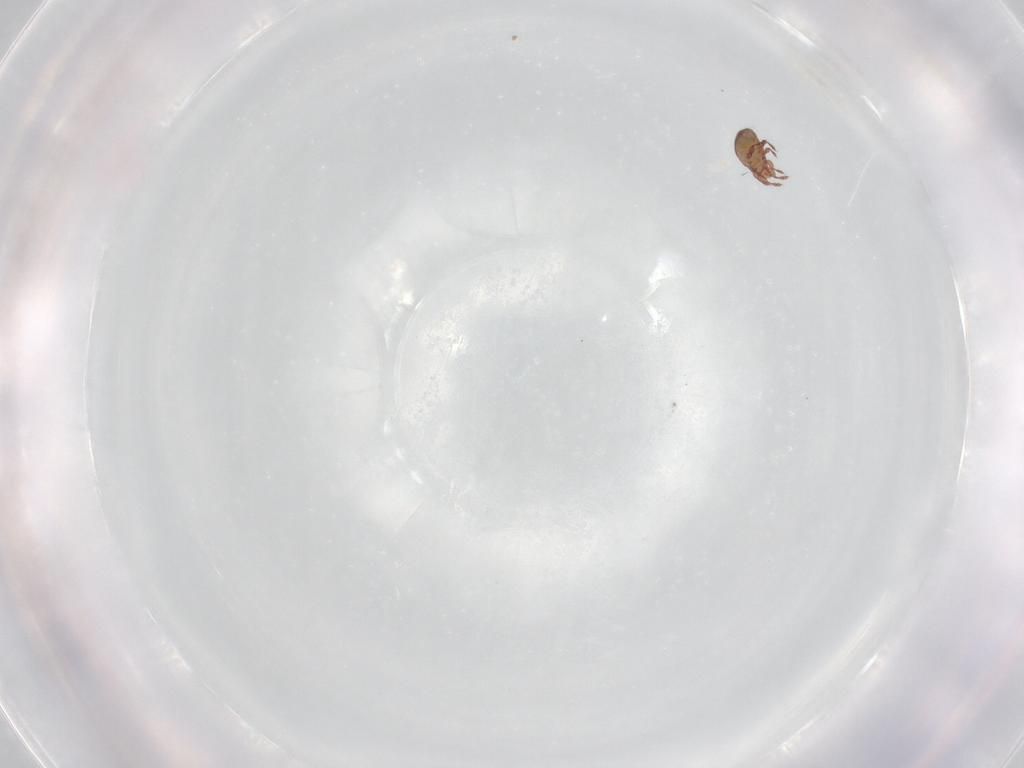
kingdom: Animalia
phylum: Arthropoda
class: Arachnida
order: Sarcoptiformes
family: Eremaeidae
